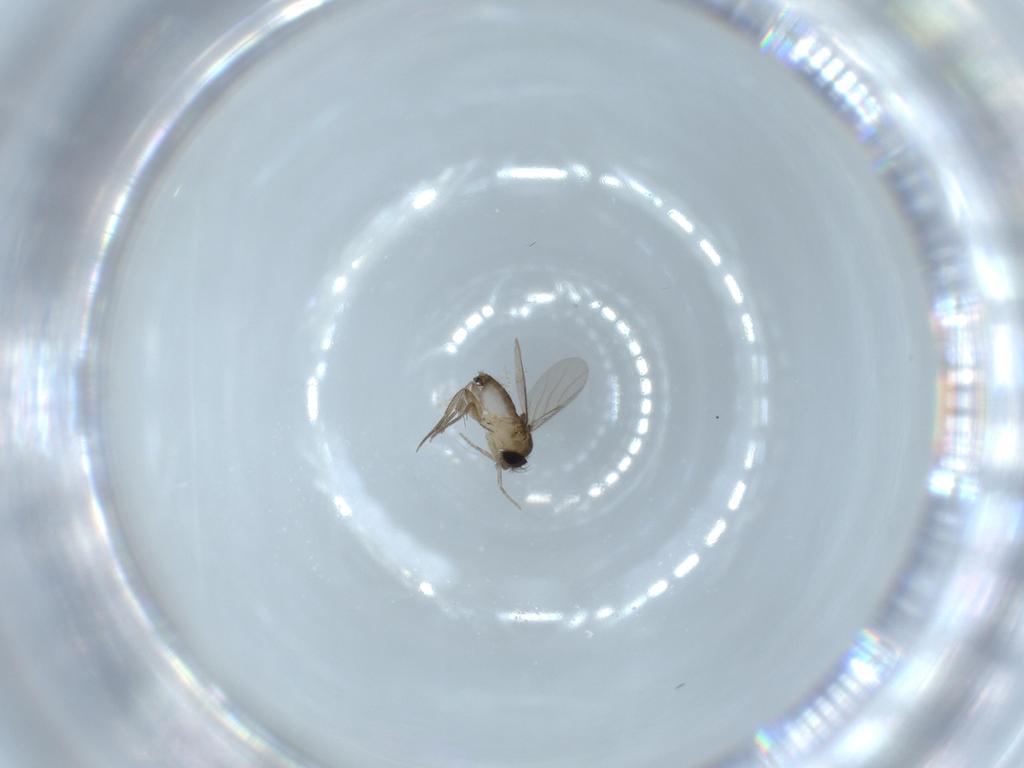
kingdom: Animalia
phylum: Arthropoda
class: Insecta
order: Diptera
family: Phoridae
